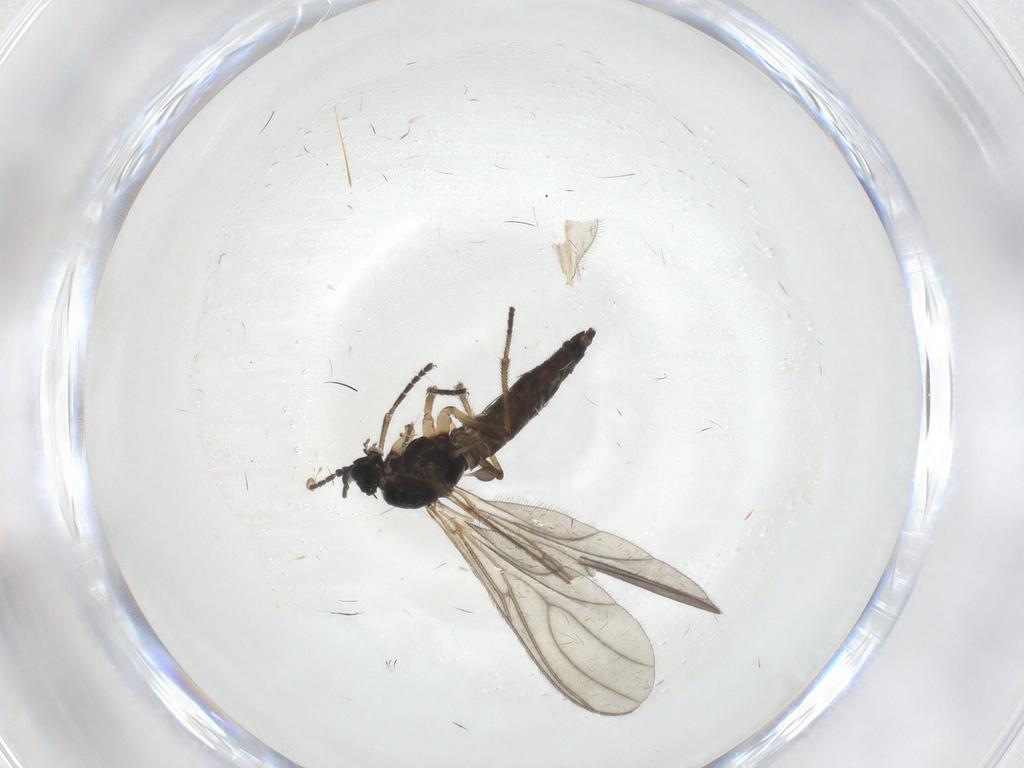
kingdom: Animalia
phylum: Arthropoda
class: Insecta
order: Diptera
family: Sciaridae
